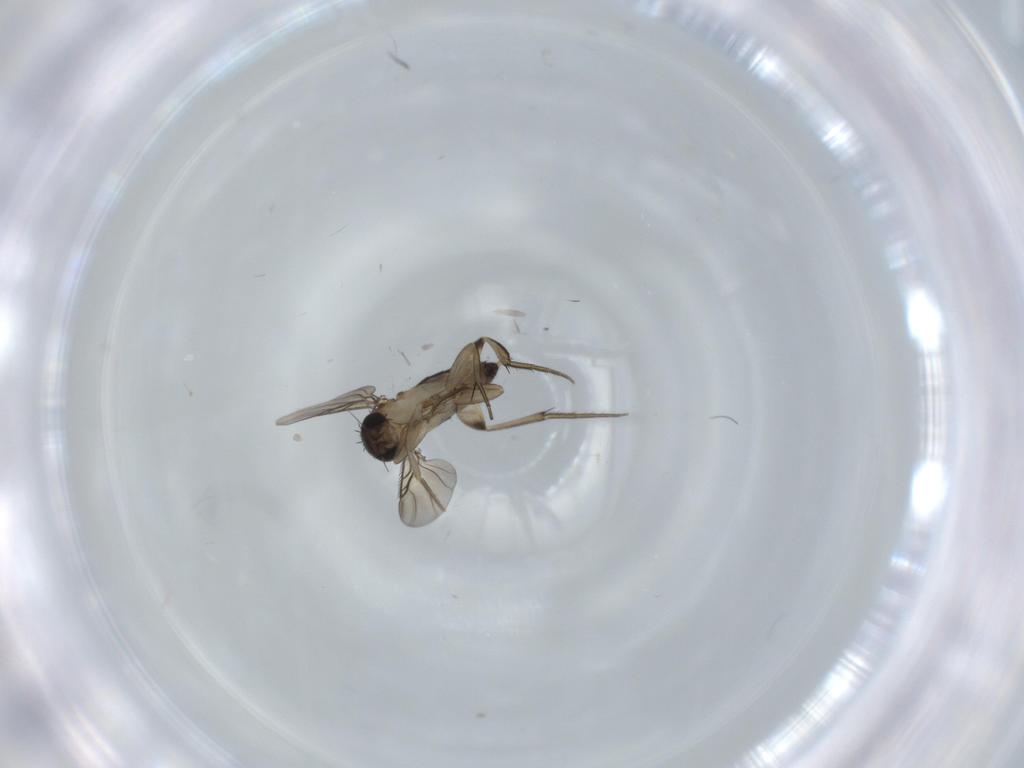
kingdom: Animalia
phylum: Arthropoda
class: Insecta
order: Diptera
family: Phoridae
